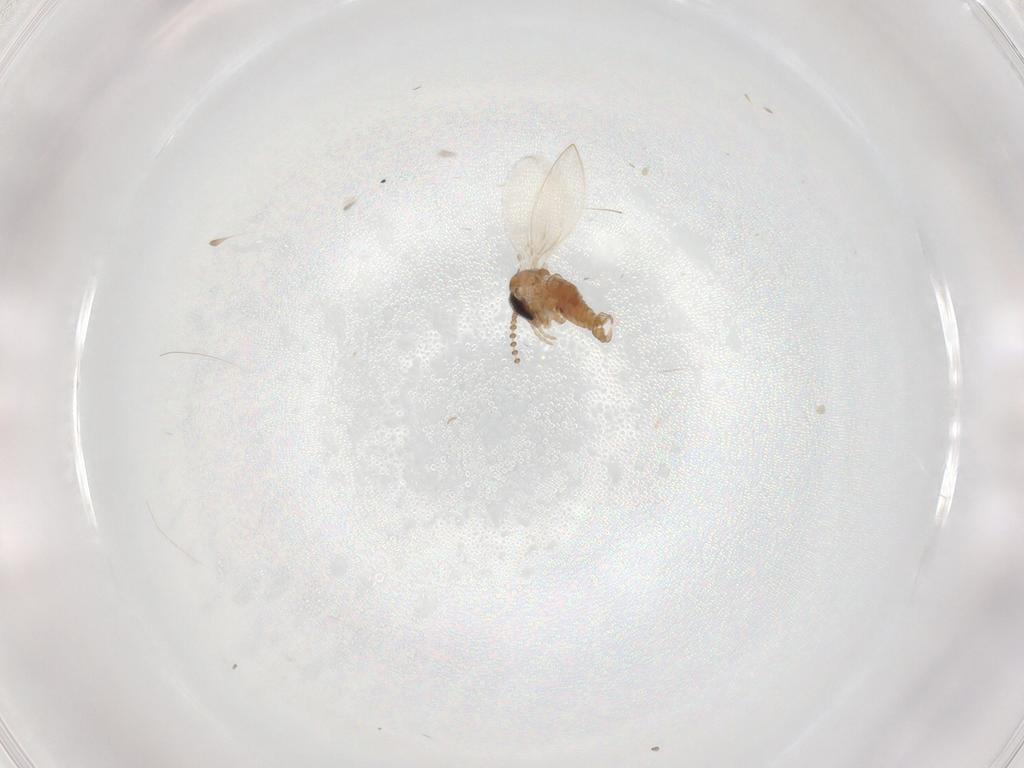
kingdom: Animalia
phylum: Arthropoda
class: Insecta
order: Diptera
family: Psychodidae
